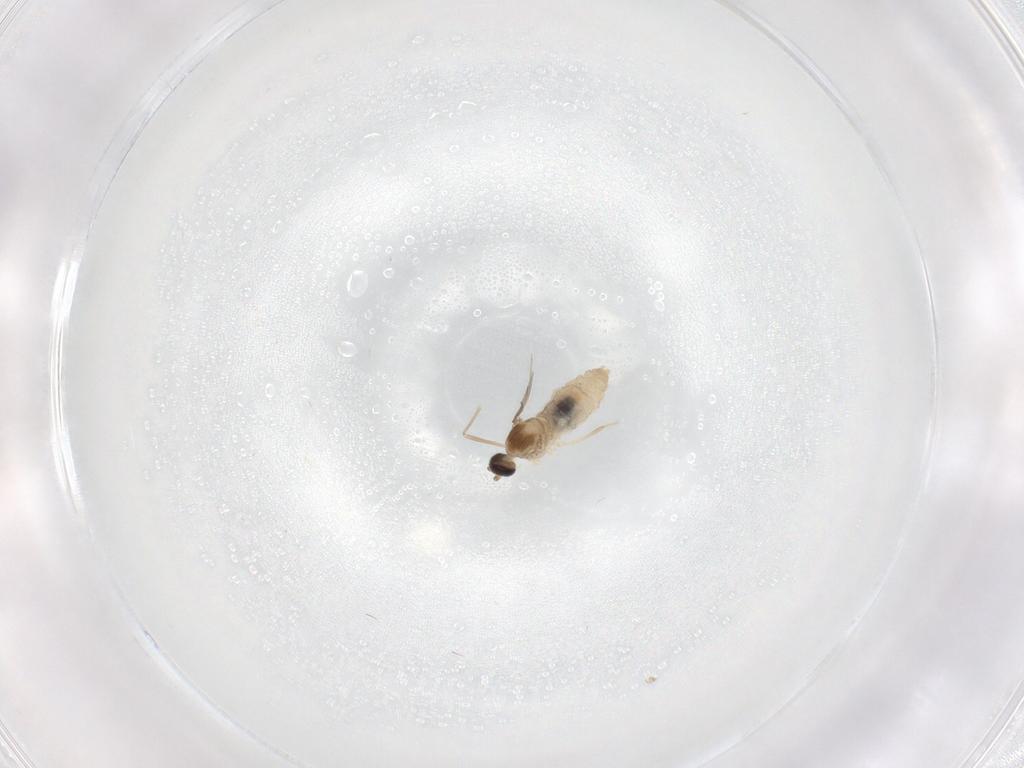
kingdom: Animalia
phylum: Arthropoda
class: Insecta
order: Diptera
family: Cecidomyiidae
